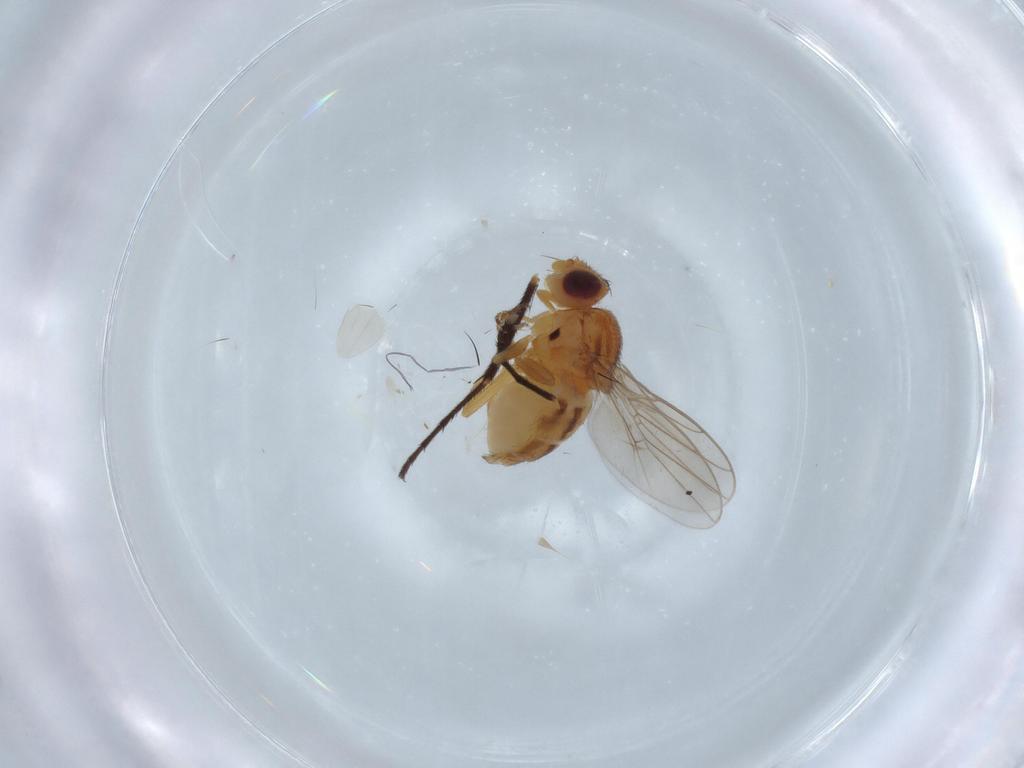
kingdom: Animalia
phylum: Arthropoda
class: Insecta
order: Diptera
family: Chloropidae
